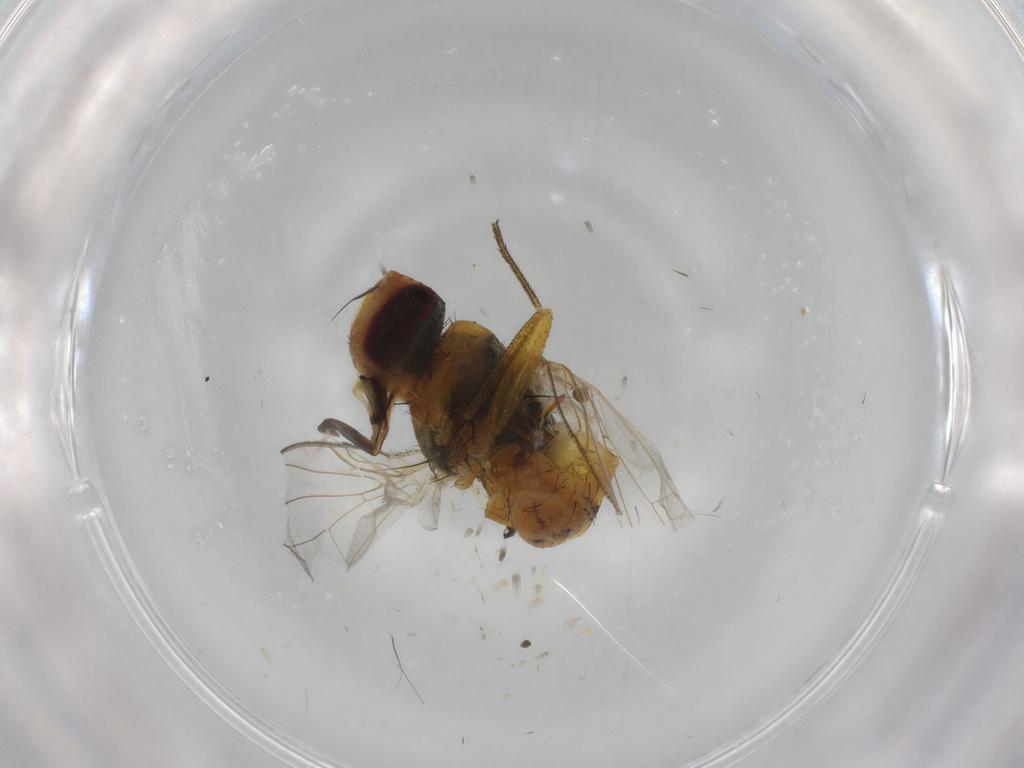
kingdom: Animalia
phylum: Arthropoda
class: Insecta
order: Diptera
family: Muscidae
